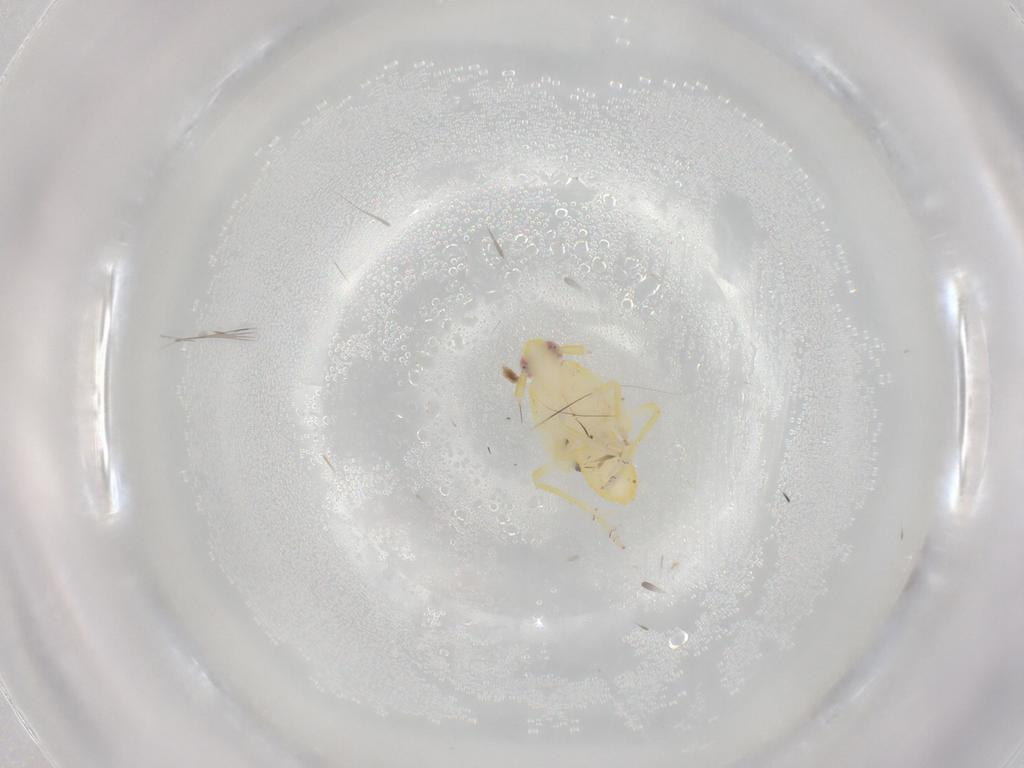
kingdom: Animalia
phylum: Arthropoda
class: Insecta
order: Hemiptera
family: Delphacidae
